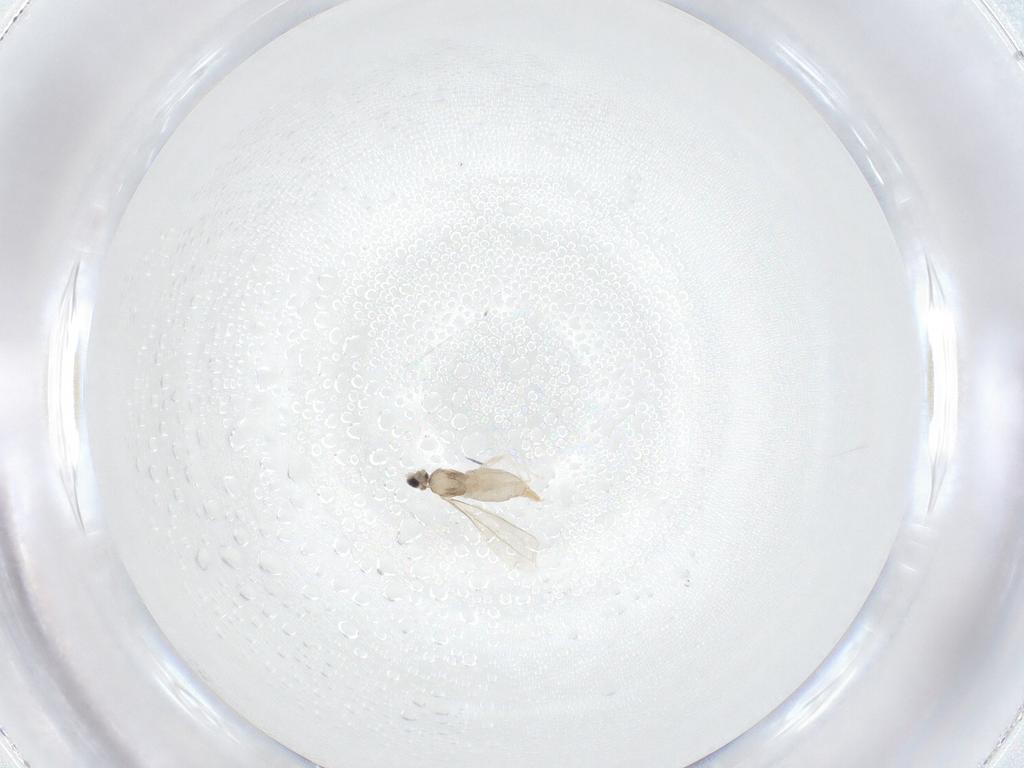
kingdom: Animalia
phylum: Arthropoda
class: Insecta
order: Diptera
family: Cecidomyiidae
